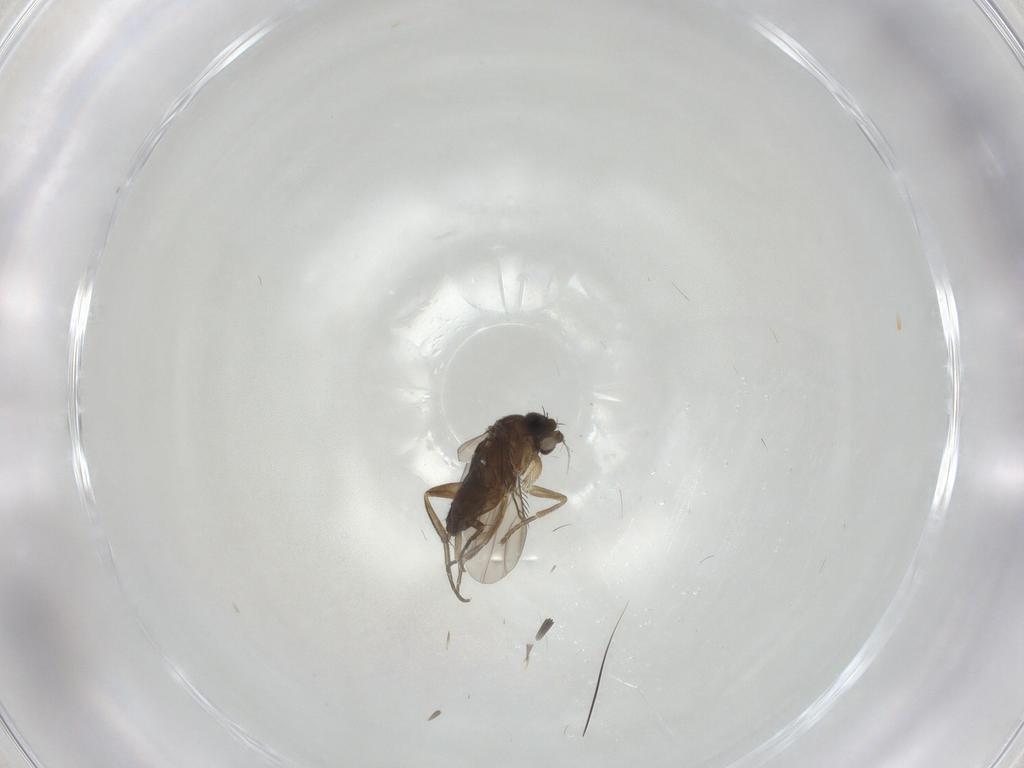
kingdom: Animalia
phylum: Arthropoda
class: Insecta
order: Diptera
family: Phoridae
